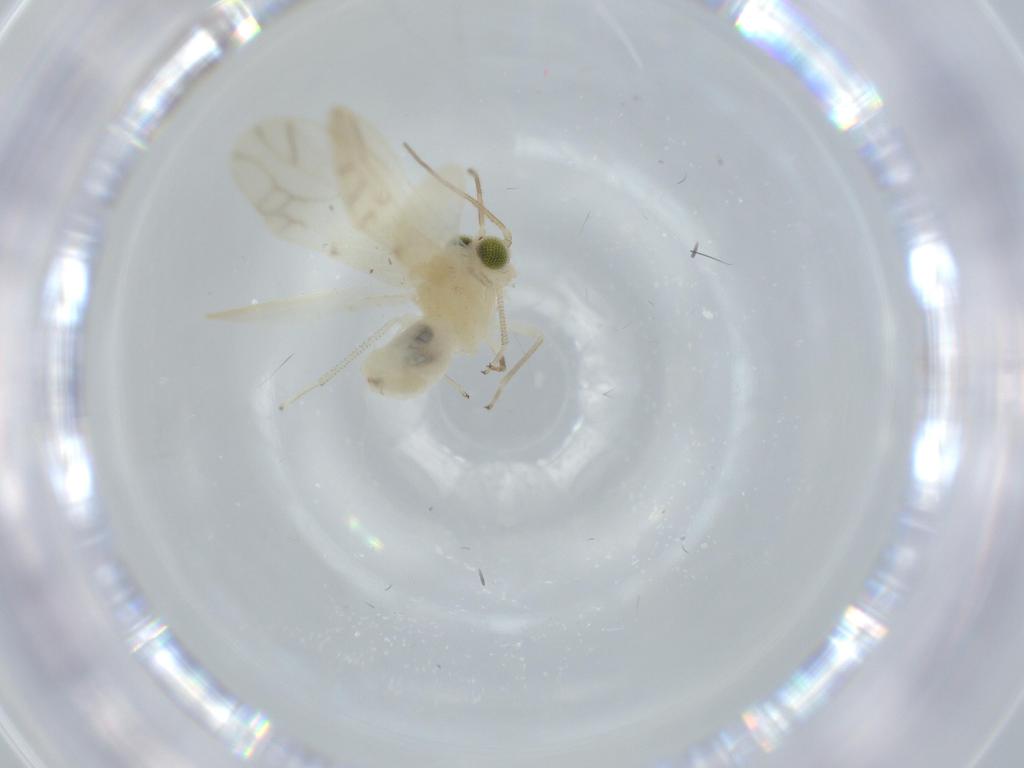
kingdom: Animalia
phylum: Arthropoda
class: Insecta
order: Psocodea
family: Caeciliusidae
